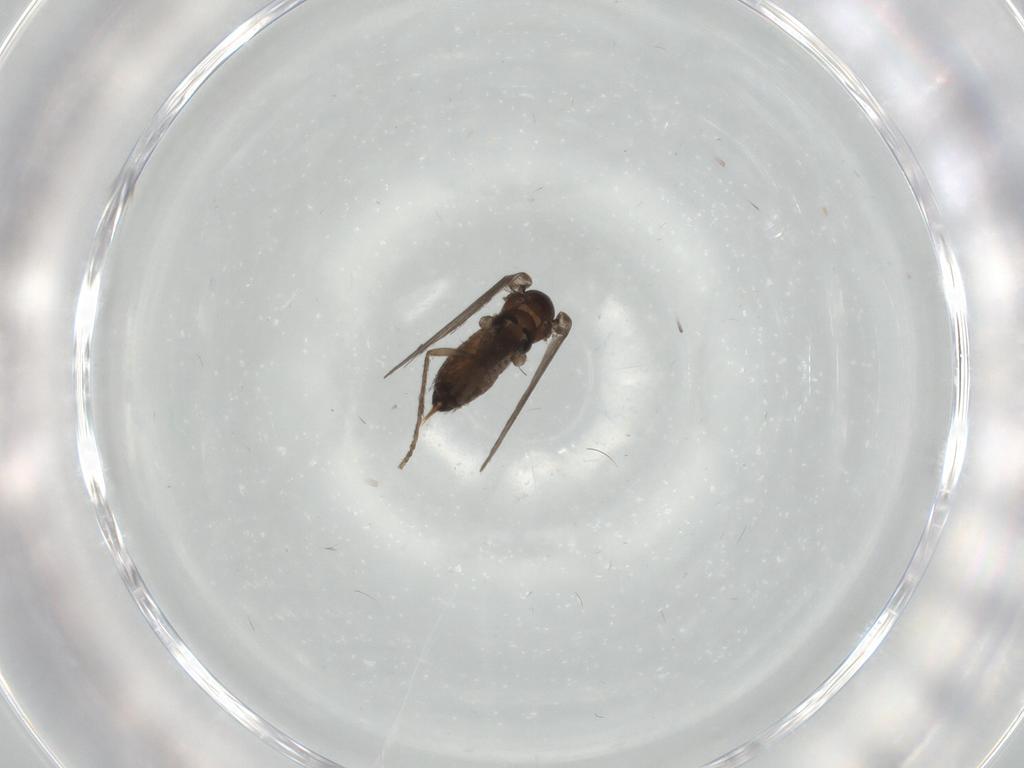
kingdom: Animalia
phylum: Arthropoda
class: Insecta
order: Diptera
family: Psychodidae
